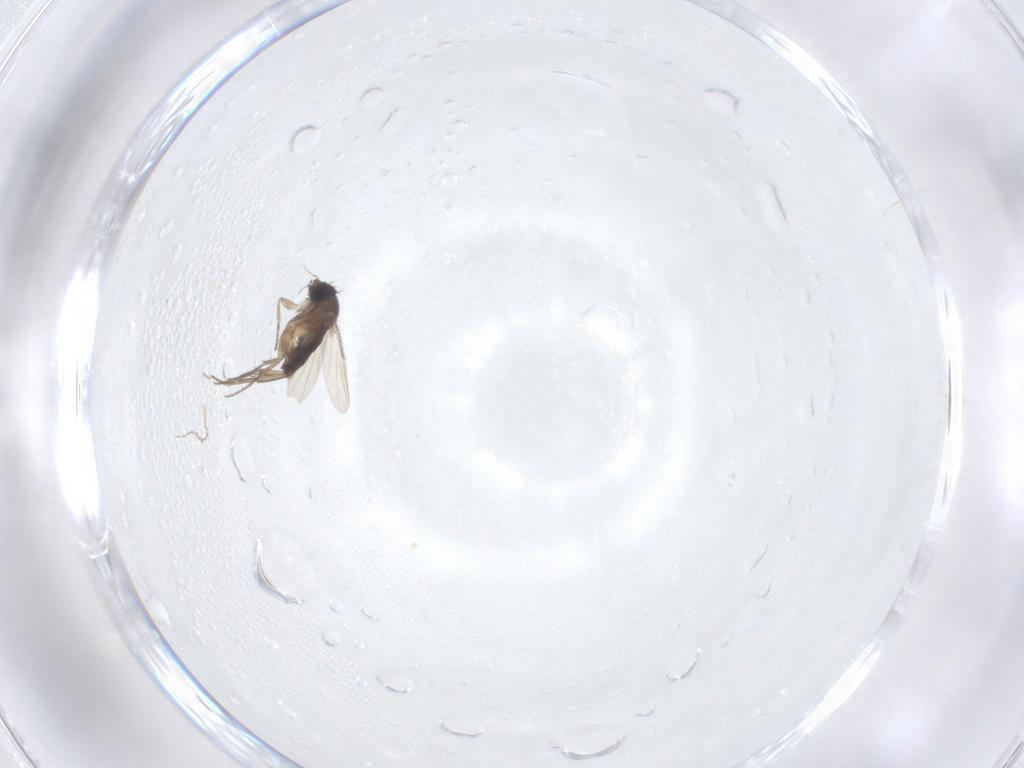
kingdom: Animalia
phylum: Arthropoda
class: Insecta
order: Diptera
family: Phoridae
